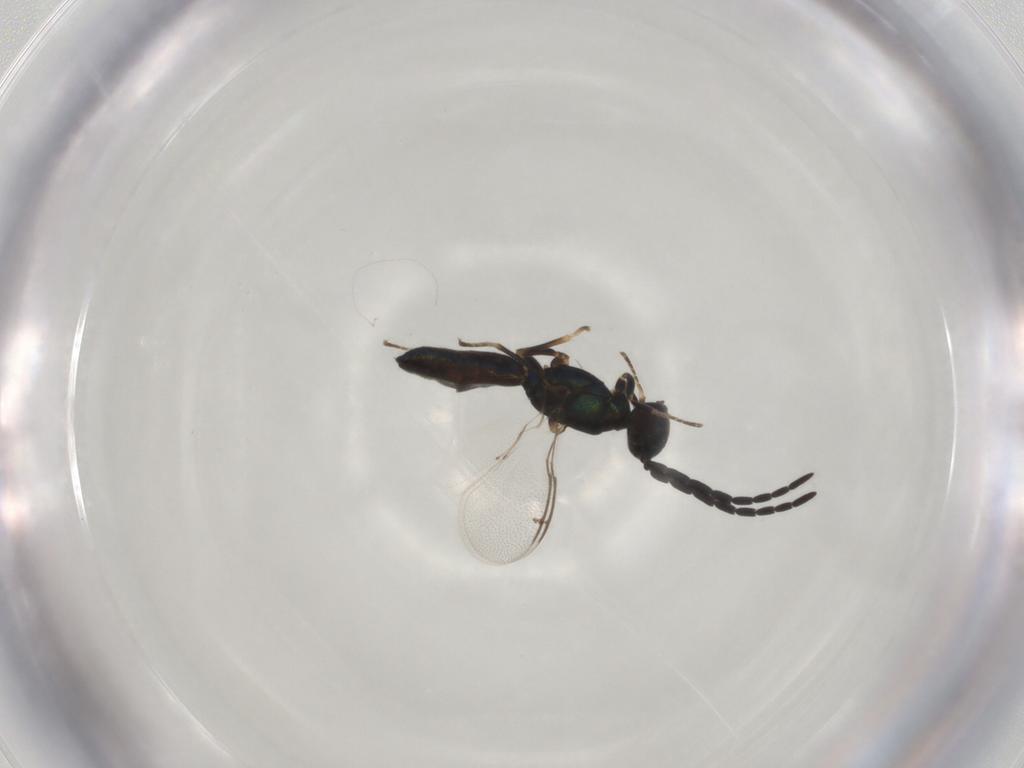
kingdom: Animalia
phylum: Arthropoda
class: Insecta
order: Hymenoptera
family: Eupelmidae
